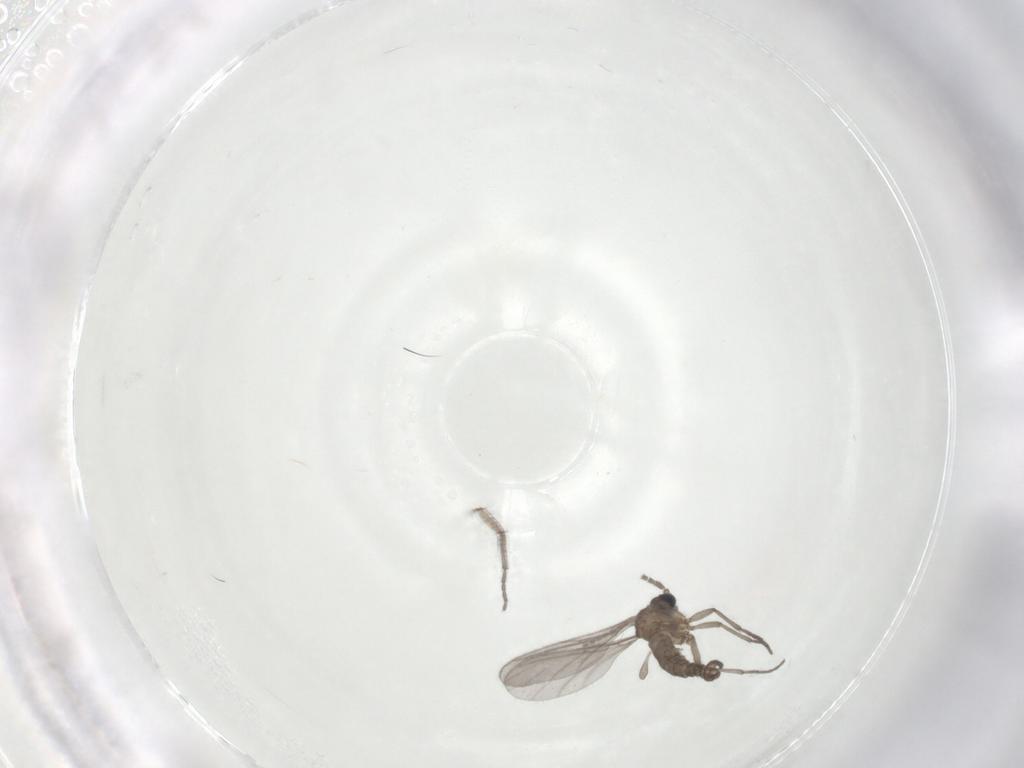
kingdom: Animalia
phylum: Arthropoda
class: Insecta
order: Diptera
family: Sciaridae
